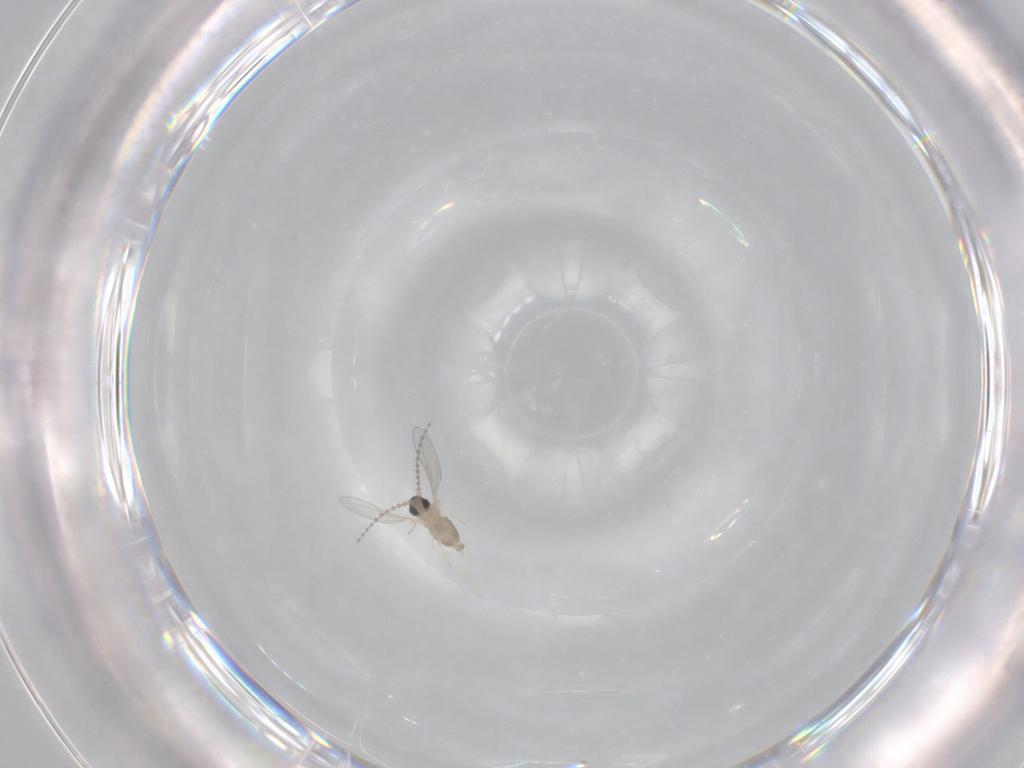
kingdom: Animalia
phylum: Arthropoda
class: Insecta
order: Diptera
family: Cecidomyiidae
